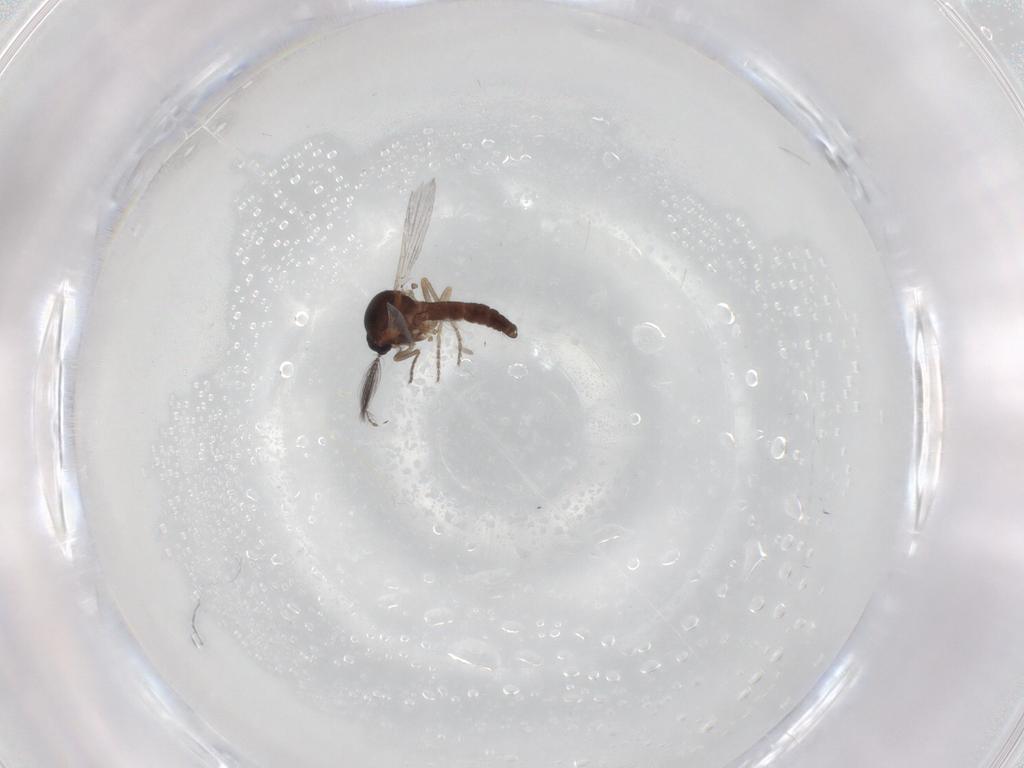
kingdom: Animalia
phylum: Arthropoda
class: Insecta
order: Diptera
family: Ceratopogonidae
